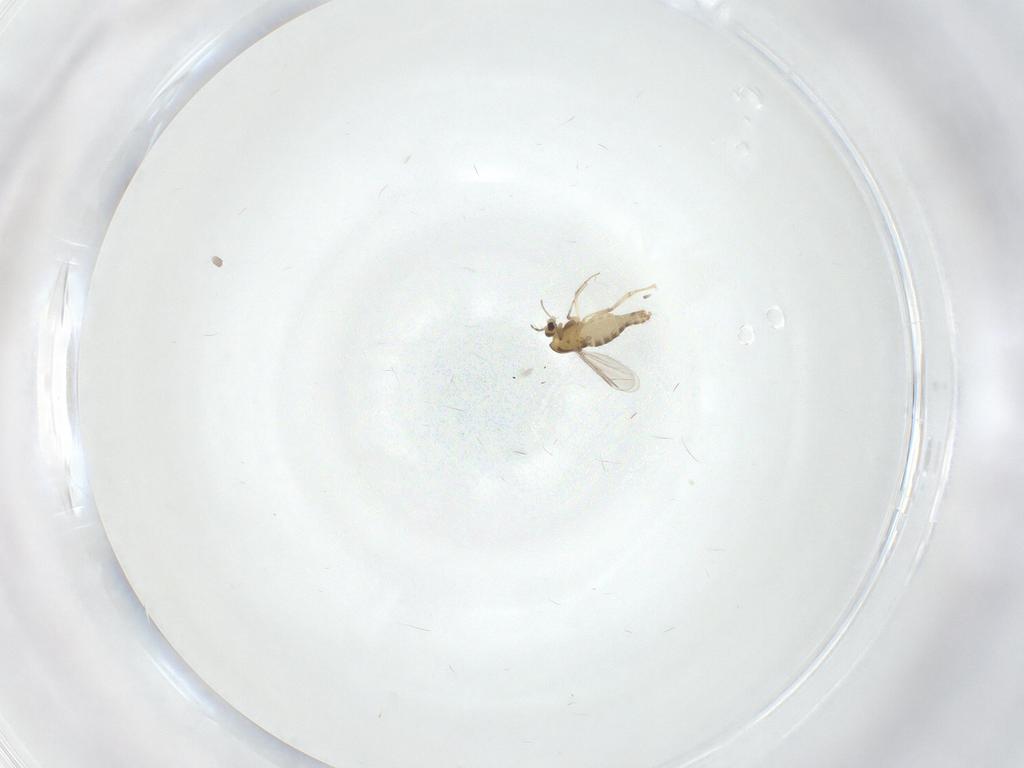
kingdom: Animalia
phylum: Arthropoda
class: Insecta
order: Diptera
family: Chironomidae
